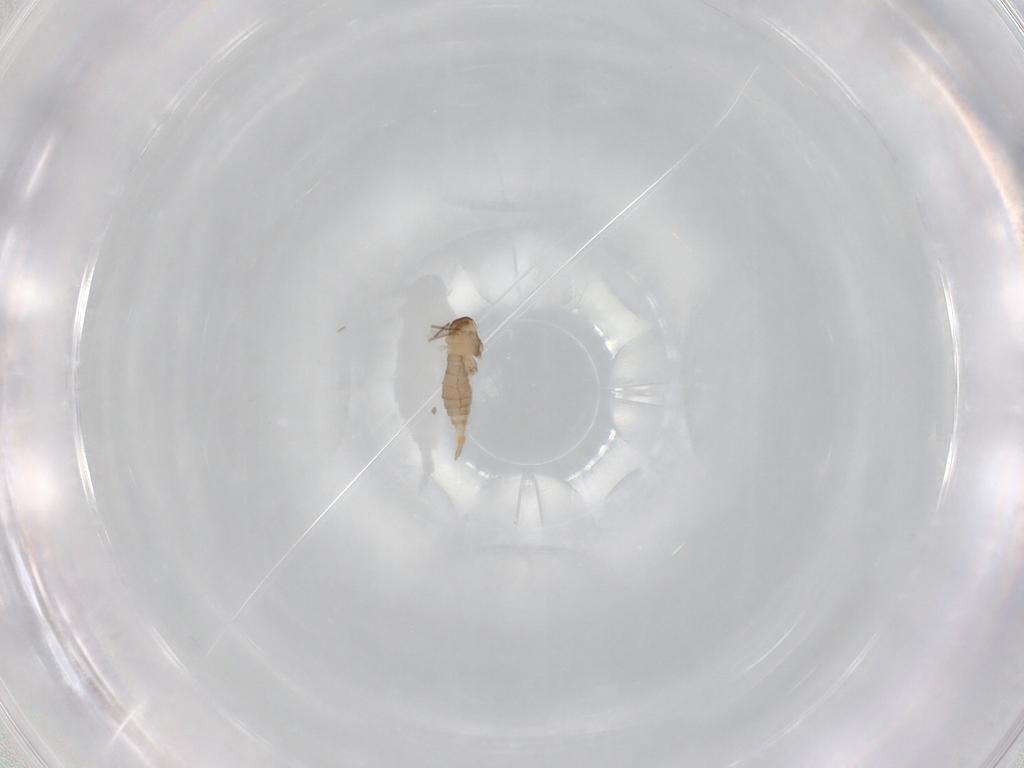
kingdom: Animalia
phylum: Arthropoda
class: Insecta
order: Diptera
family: Cecidomyiidae
